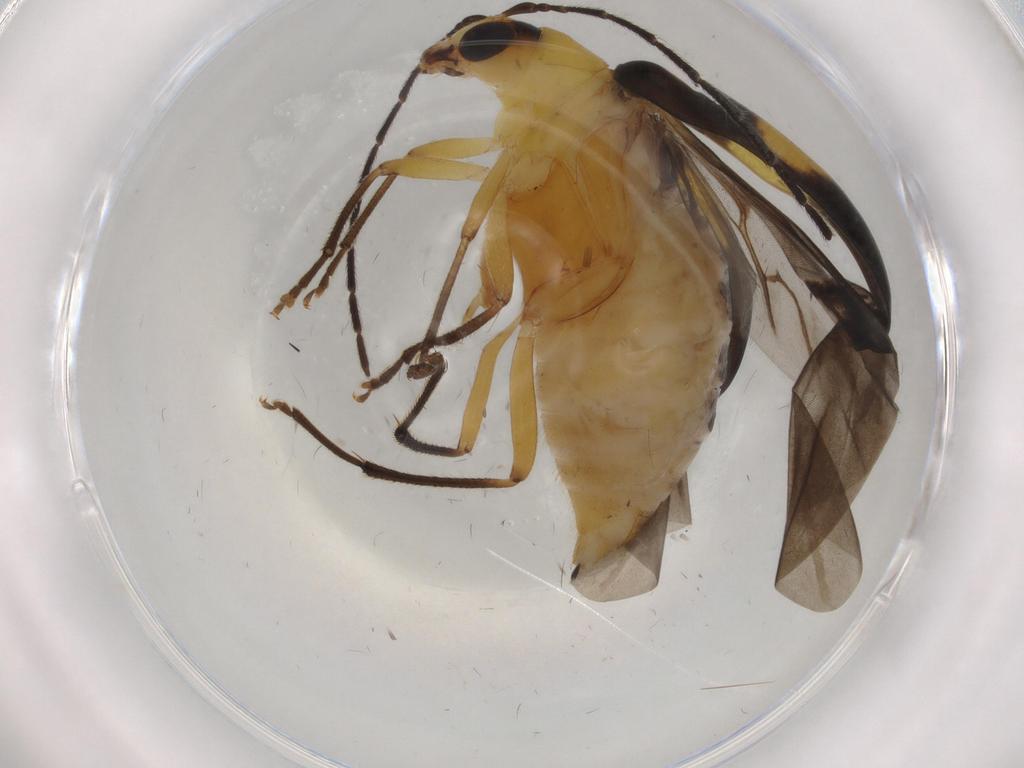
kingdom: Animalia
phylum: Arthropoda
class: Insecta
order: Coleoptera
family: Chrysomelidae
